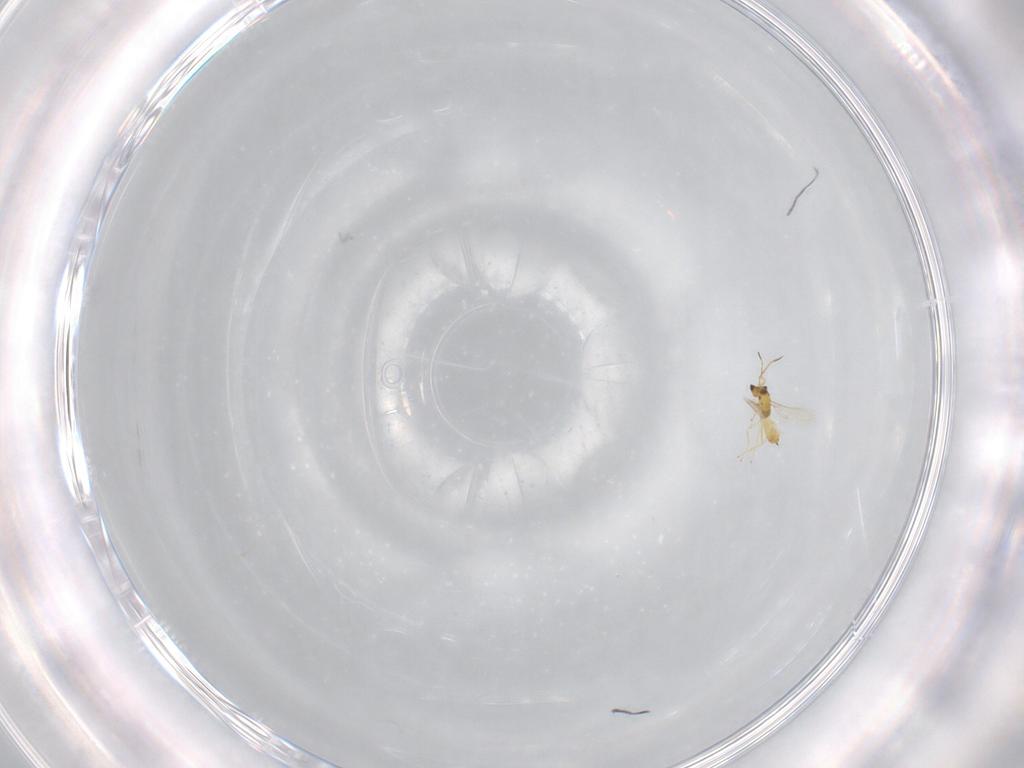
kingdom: Animalia
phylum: Arthropoda
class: Insecta
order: Hymenoptera
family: Mymaridae
